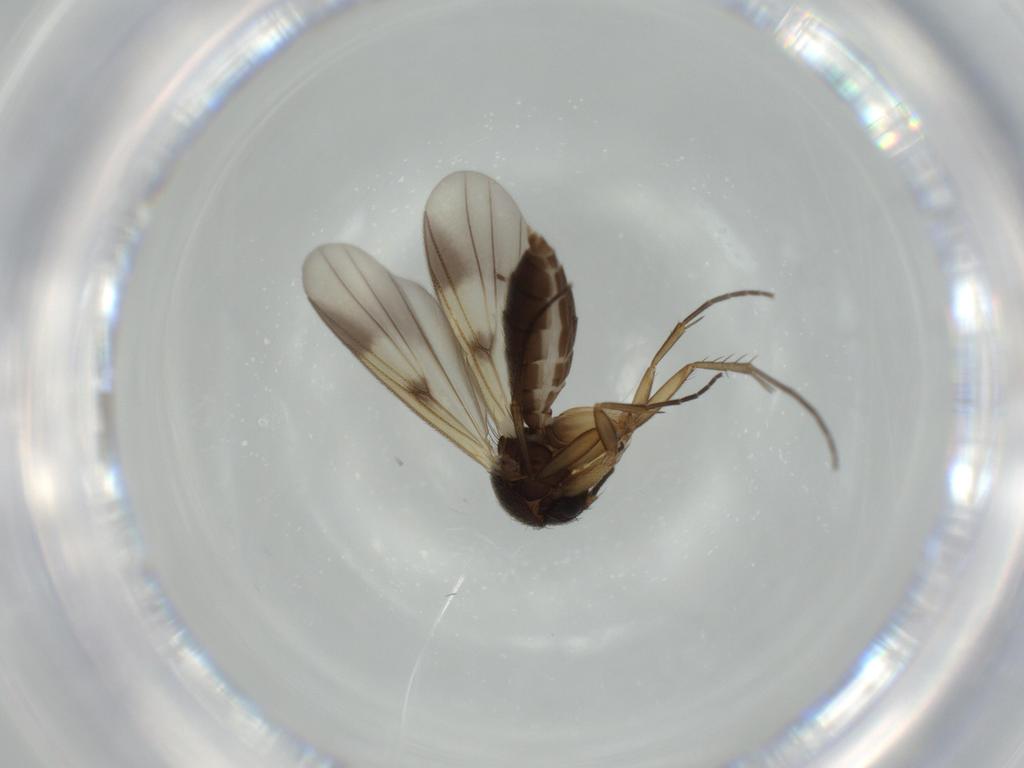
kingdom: Animalia
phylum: Arthropoda
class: Insecta
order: Diptera
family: Mycetophilidae
